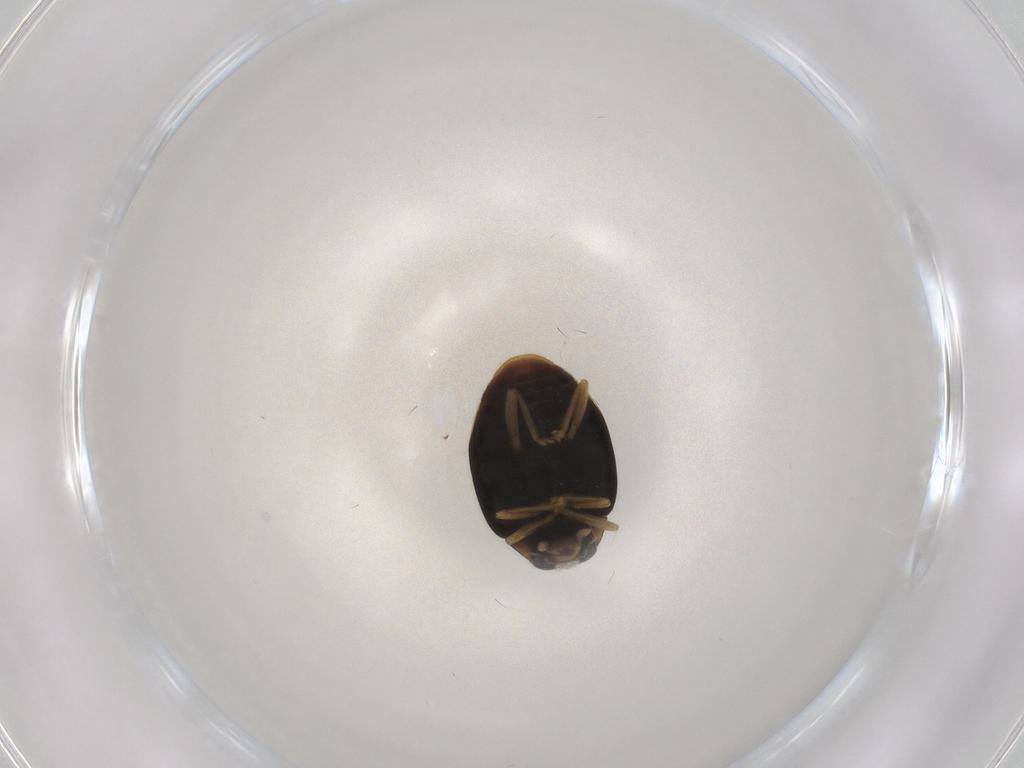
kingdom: Animalia
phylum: Arthropoda
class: Insecta
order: Coleoptera
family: Coccinellidae
